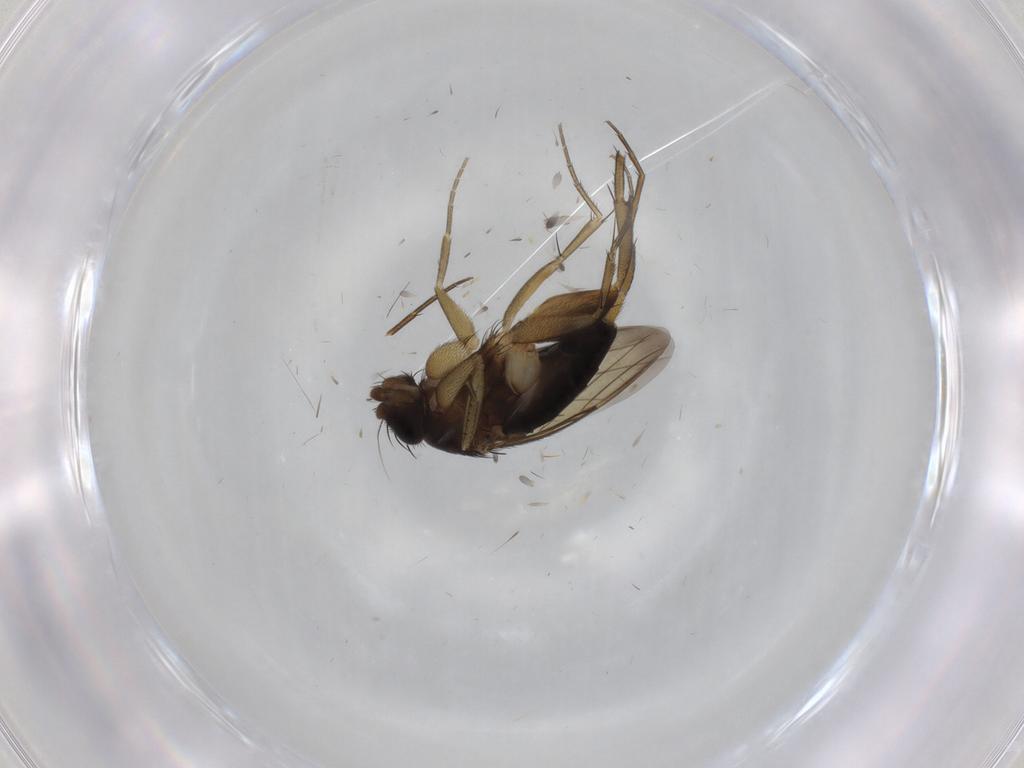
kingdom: Animalia
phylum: Arthropoda
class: Insecta
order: Diptera
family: Phoridae
